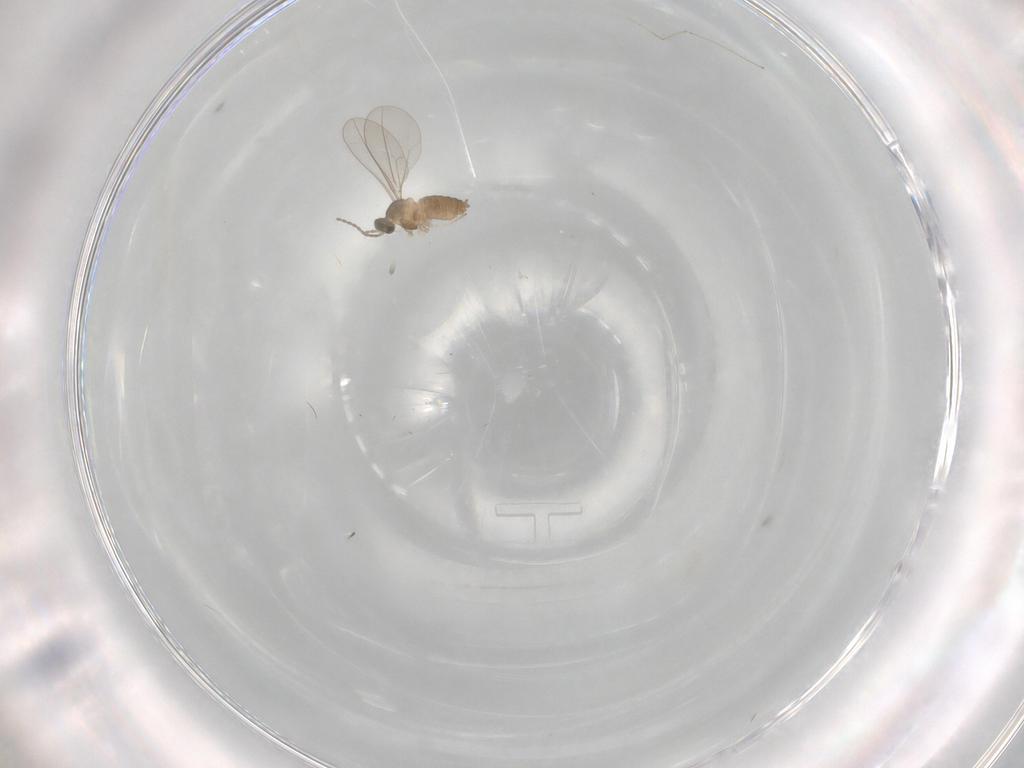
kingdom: Animalia
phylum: Arthropoda
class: Insecta
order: Diptera
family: Cecidomyiidae
